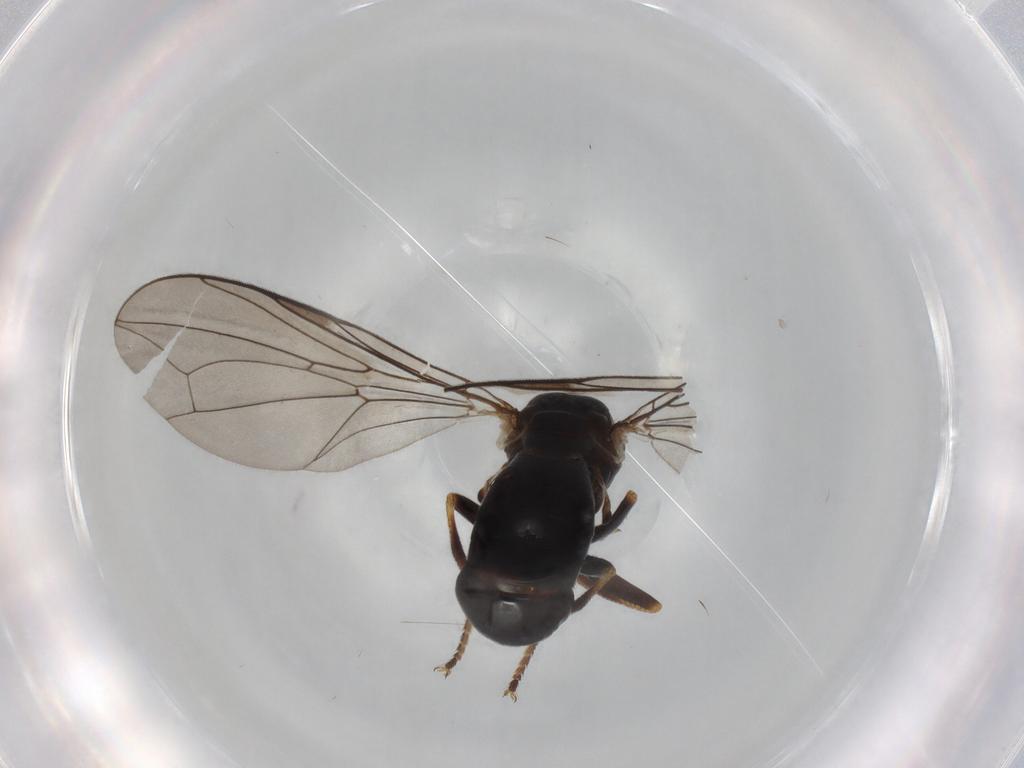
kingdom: Animalia
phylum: Arthropoda
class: Insecta
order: Diptera
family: Pipunculidae
